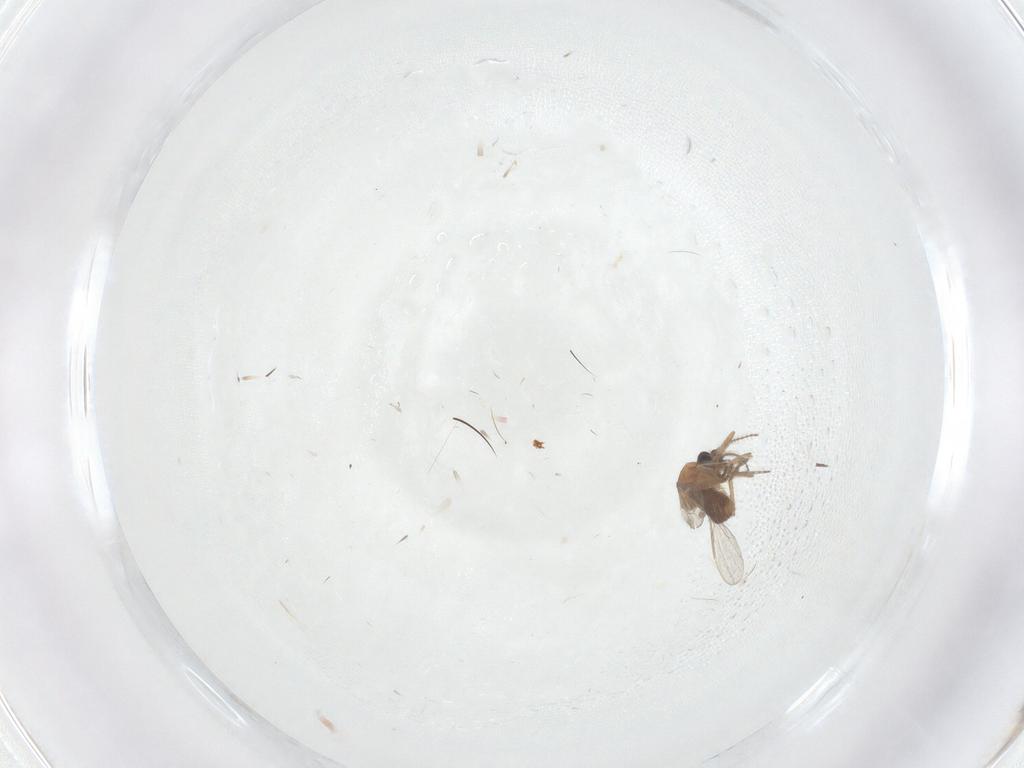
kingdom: Animalia
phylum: Arthropoda
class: Insecta
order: Diptera
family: Ceratopogonidae
